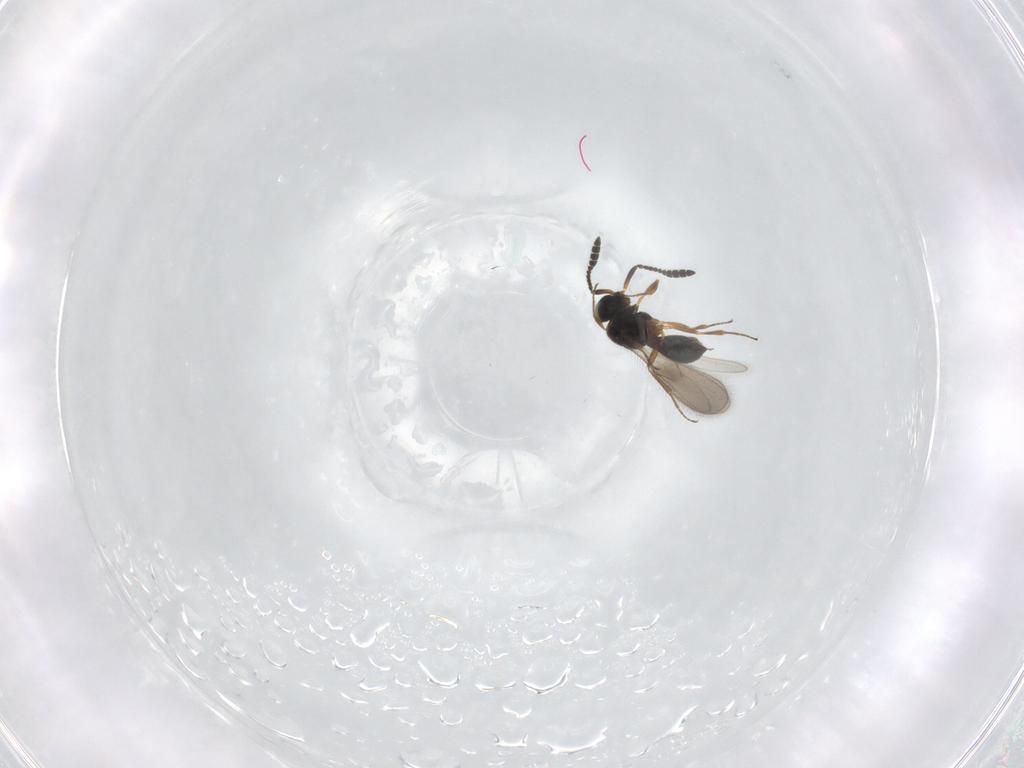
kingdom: Animalia
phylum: Arthropoda
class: Insecta
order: Hymenoptera
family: Scelionidae
